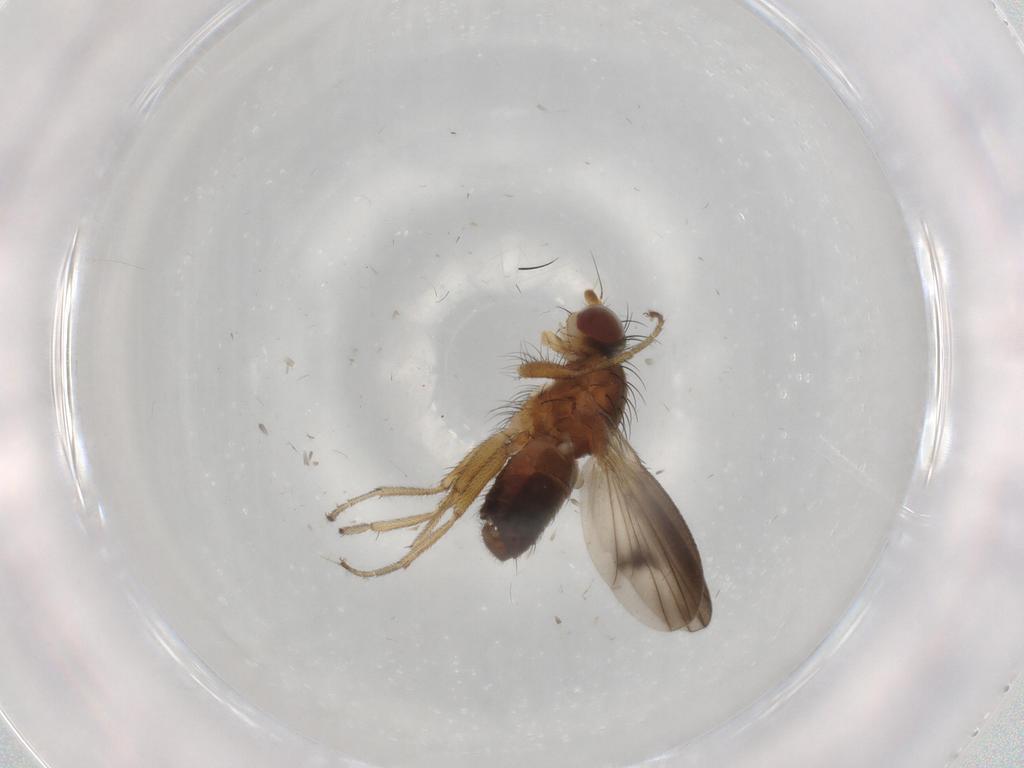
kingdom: Animalia
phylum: Arthropoda
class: Insecta
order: Diptera
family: Heleomyzidae
